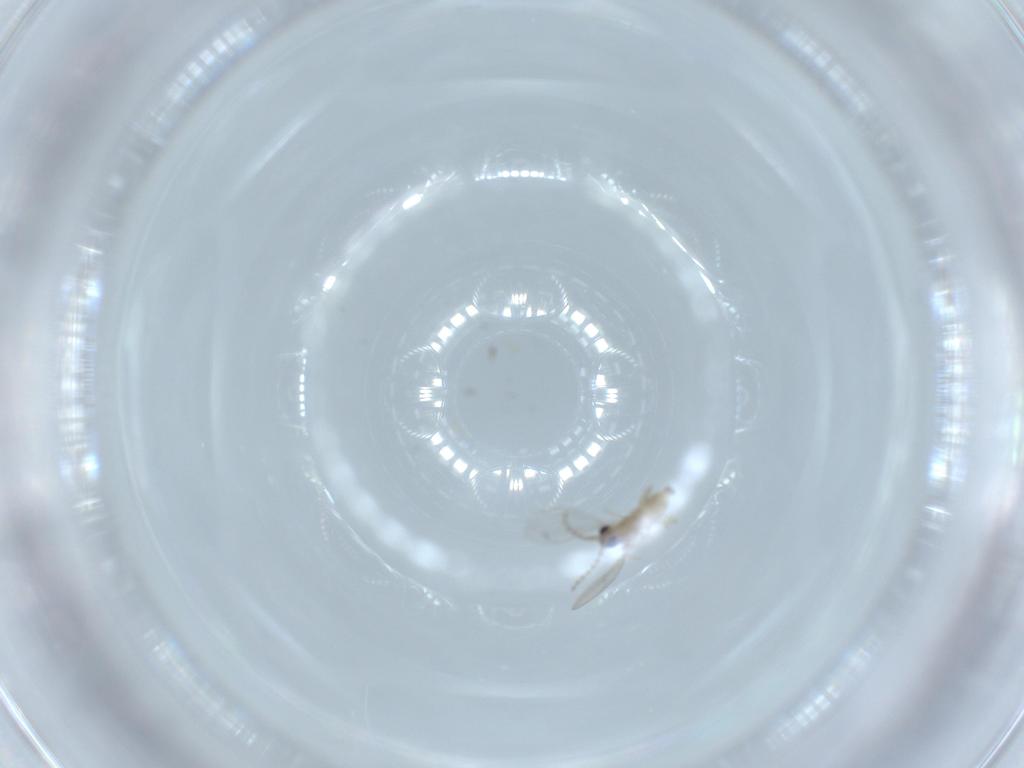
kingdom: Animalia
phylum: Arthropoda
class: Insecta
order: Diptera
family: Cecidomyiidae
